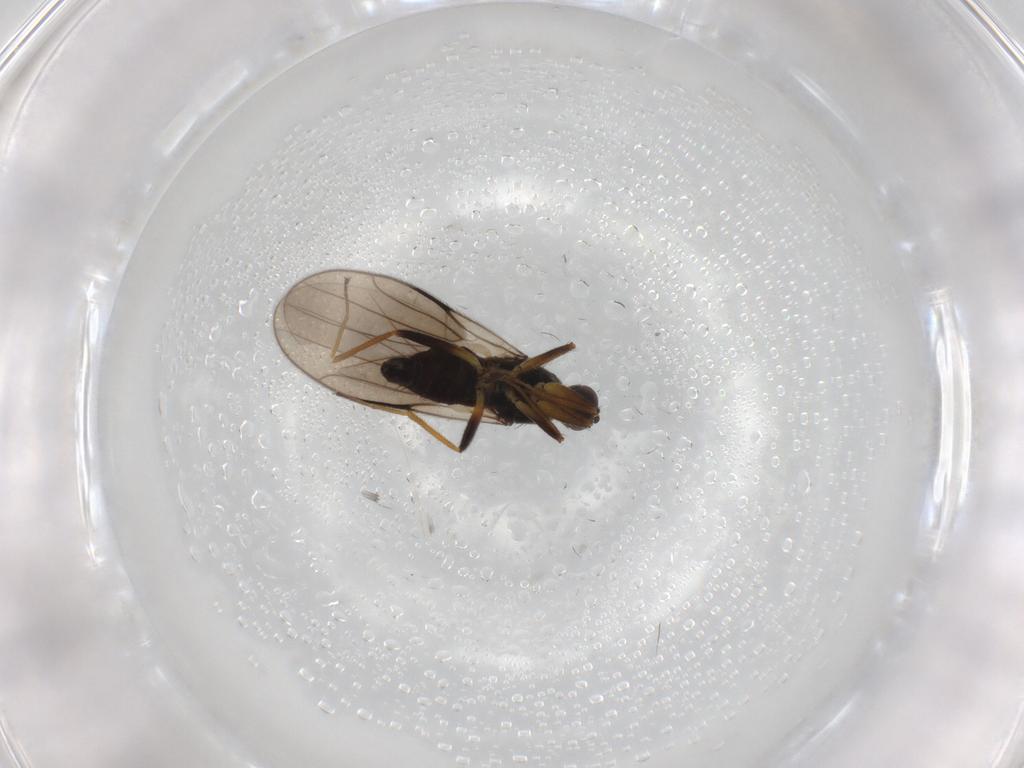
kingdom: Animalia
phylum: Arthropoda
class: Insecta
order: Diptera
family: Hybotidae
